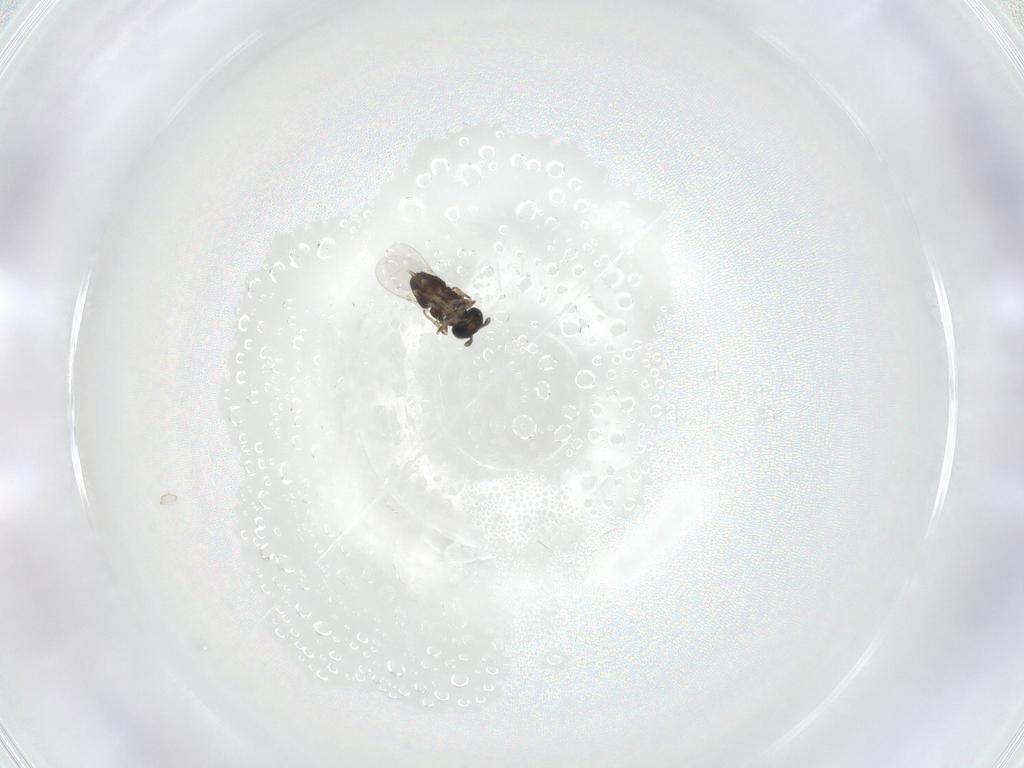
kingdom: Animalia
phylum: Arthropoda
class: Insecta
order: Hymenoptera
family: Encyrtidae
